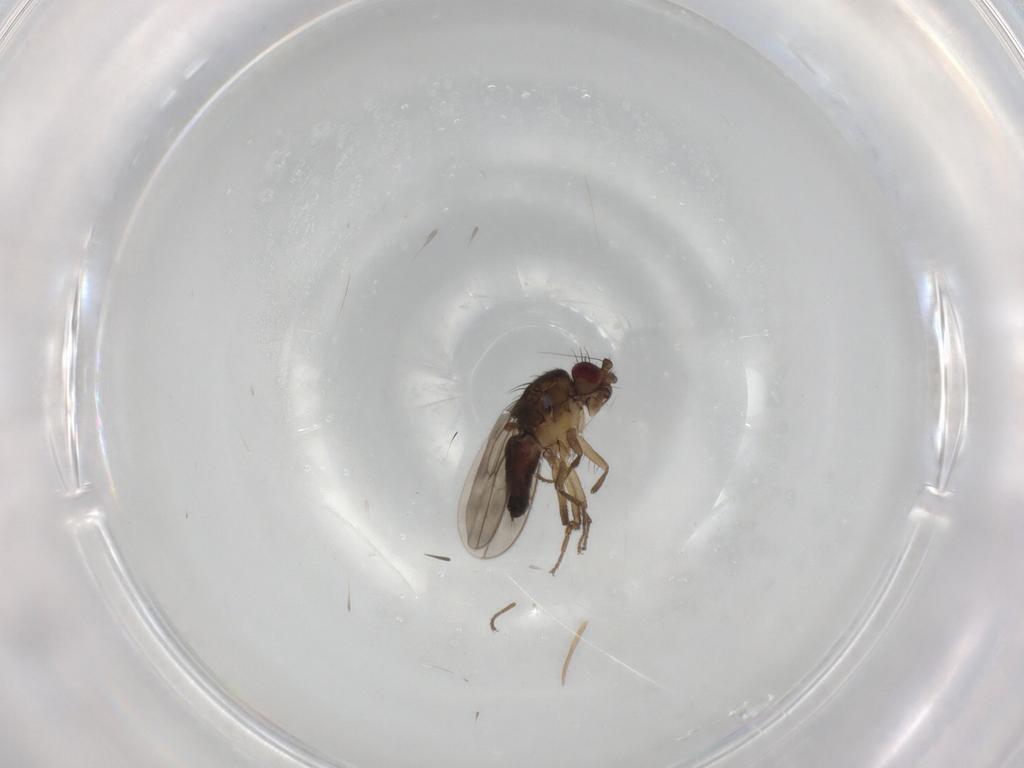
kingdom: Animalia
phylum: Arthropoda
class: Insecta
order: Diptera
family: Sphaeroceridae
